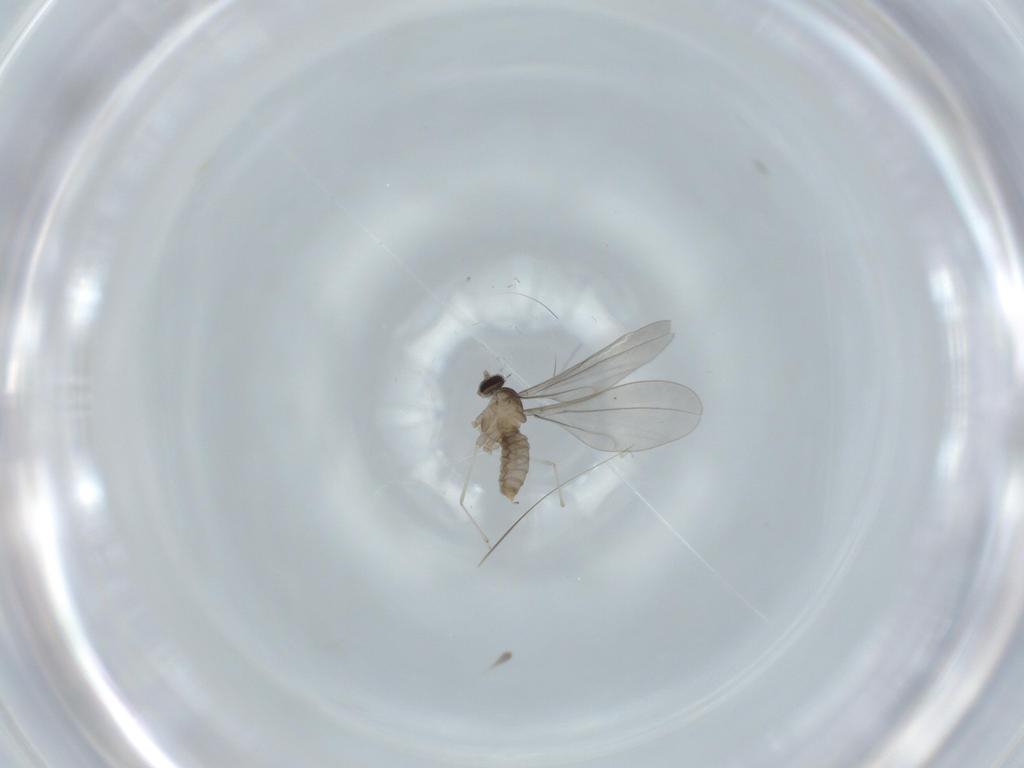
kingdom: Animalia
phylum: Arthropoda
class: Insecta
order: Diptera
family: Cecidomyiidae
